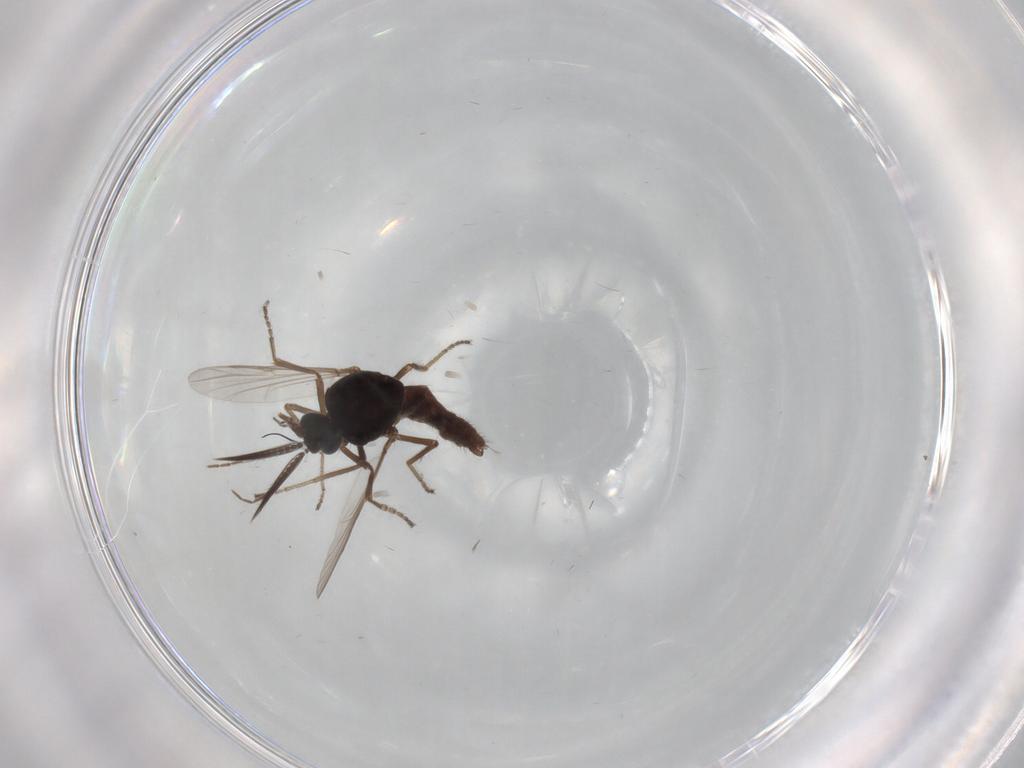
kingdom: Animalia
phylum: Arthropoda
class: Insecta
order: Diptera
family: Ceratopogonidae
